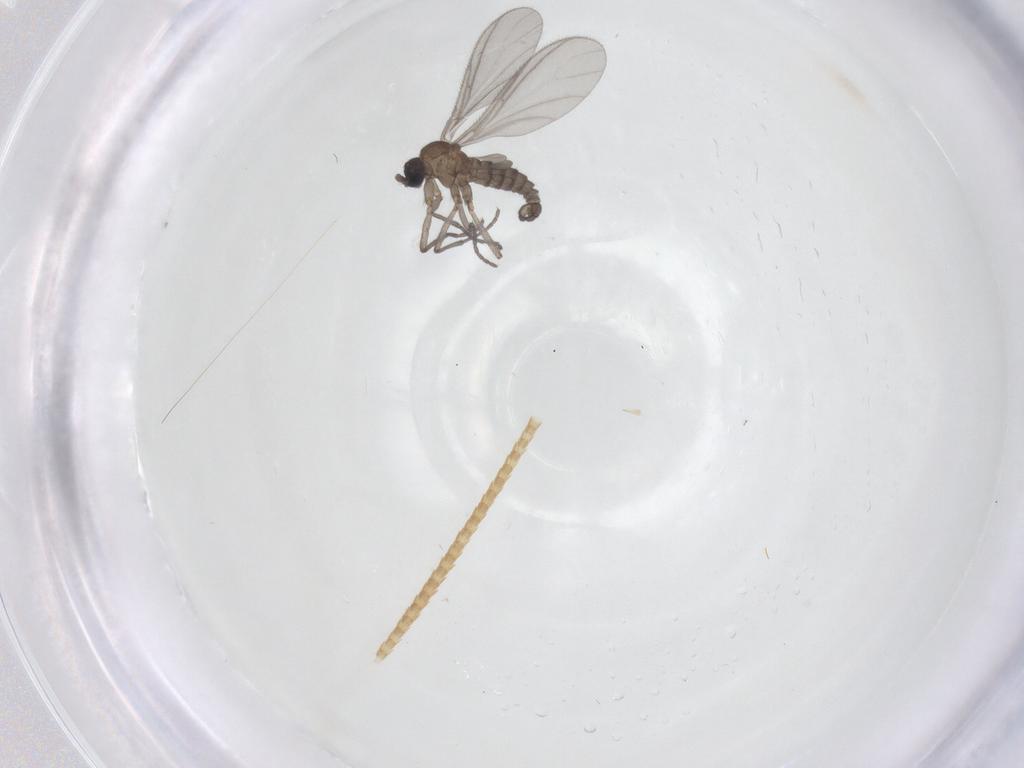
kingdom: Animalia
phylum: Arthropoda
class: Insecta
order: Diptera
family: Sciaridae
